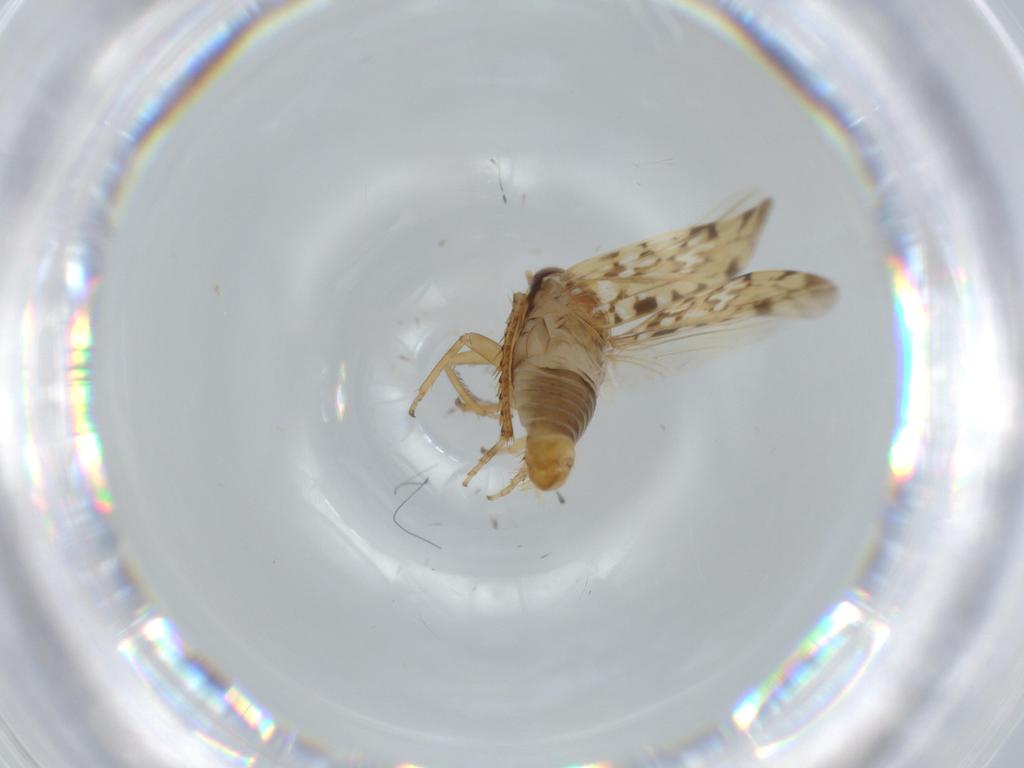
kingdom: Animalia
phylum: Arthropoda
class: Insecta
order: Hemiptera
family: Cicadellidae
